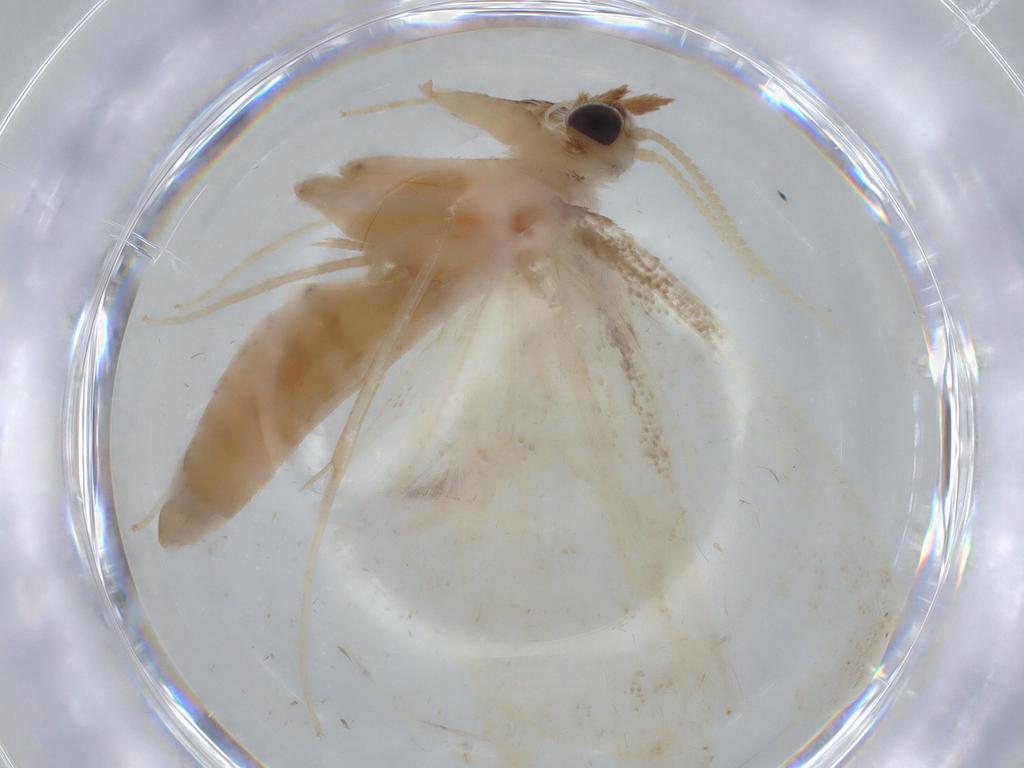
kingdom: Animalia
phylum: Arthropoda
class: Insecta
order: Lepidoptera
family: Crambidae
